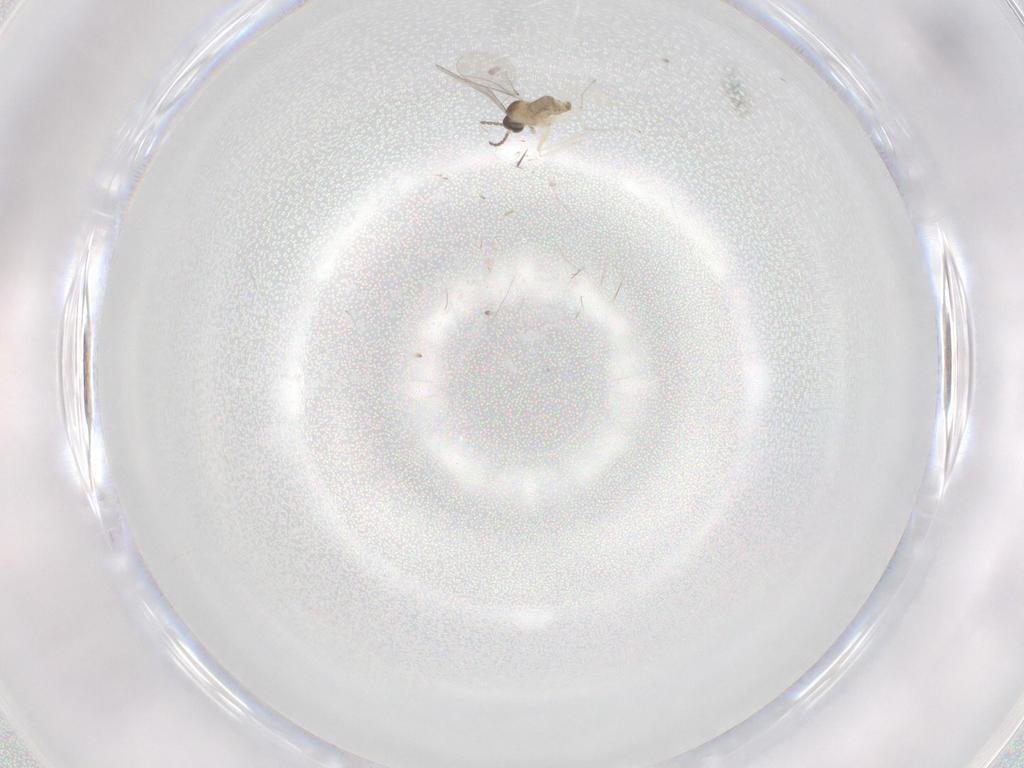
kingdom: Animalia
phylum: Arthropoda
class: Insecta
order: Diptera
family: Cecidomyiidae
